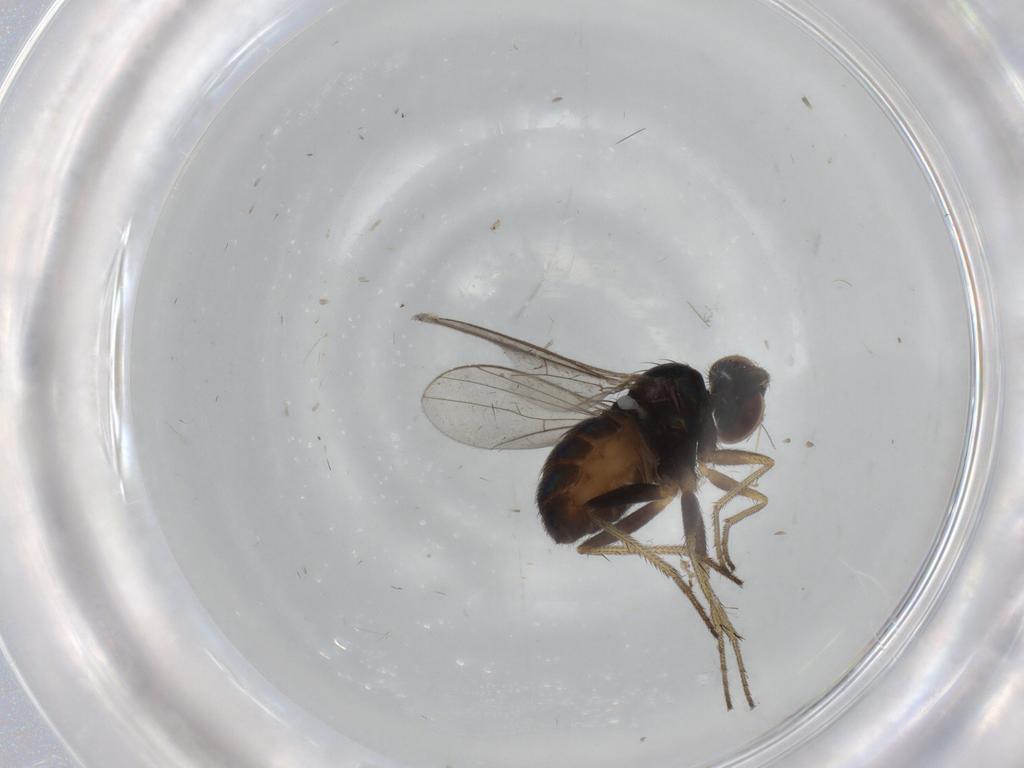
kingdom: Animalia
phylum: Arthropoda
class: Insecta
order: Diptera
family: Dolichopodidae
